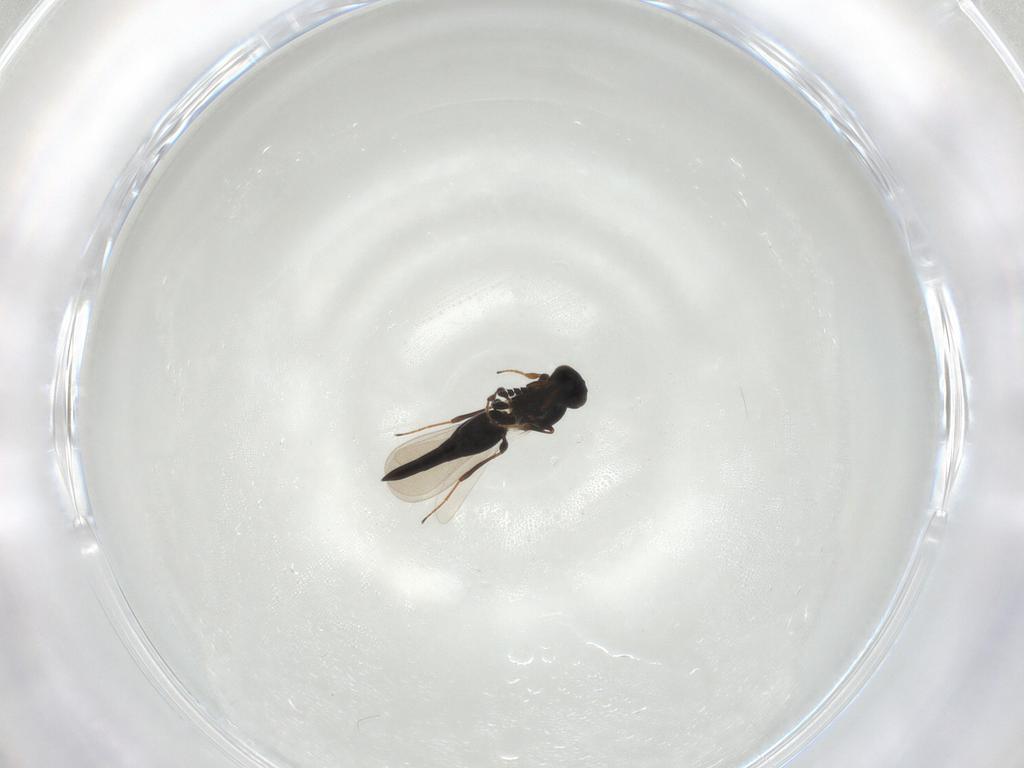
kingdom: Animalia
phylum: Arthropoda
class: Insecta
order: Hymenoptera
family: Platygastridae
